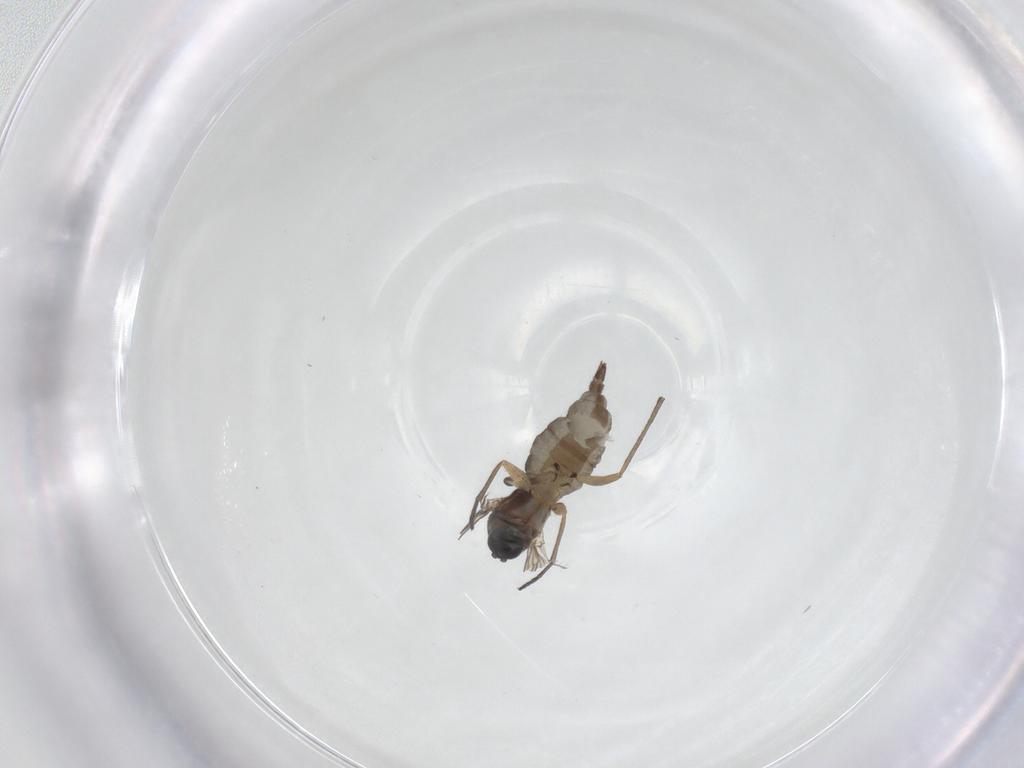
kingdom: Animalia
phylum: Arthropoda
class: Insecta
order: Diptera
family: Sciaridae
